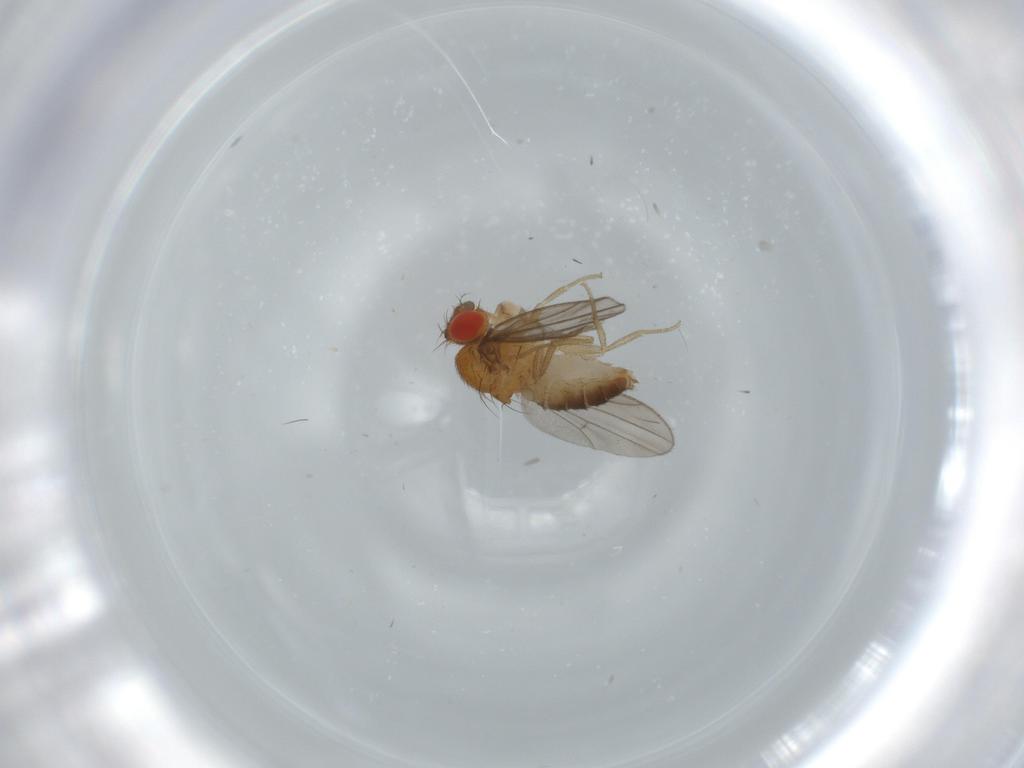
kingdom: Animalia
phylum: Arthropoda
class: Insecta
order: Diptera
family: Drosophilidae
